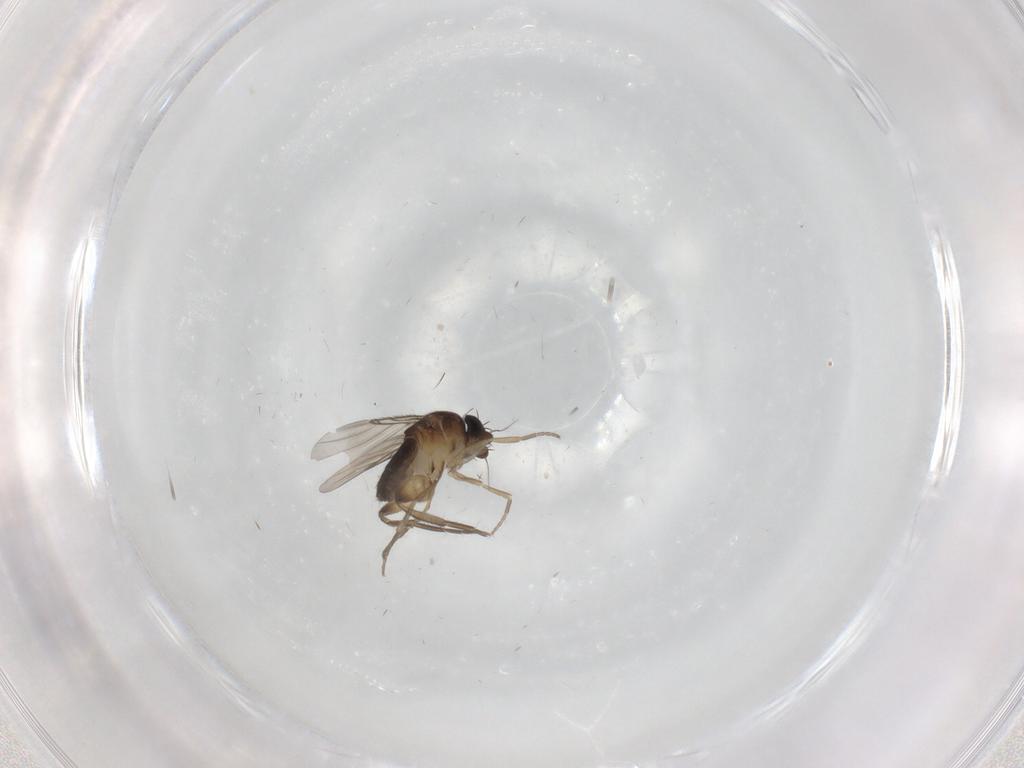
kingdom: Animalia
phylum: Arthropoda
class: Insecta
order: Diptera
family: Phoridae
